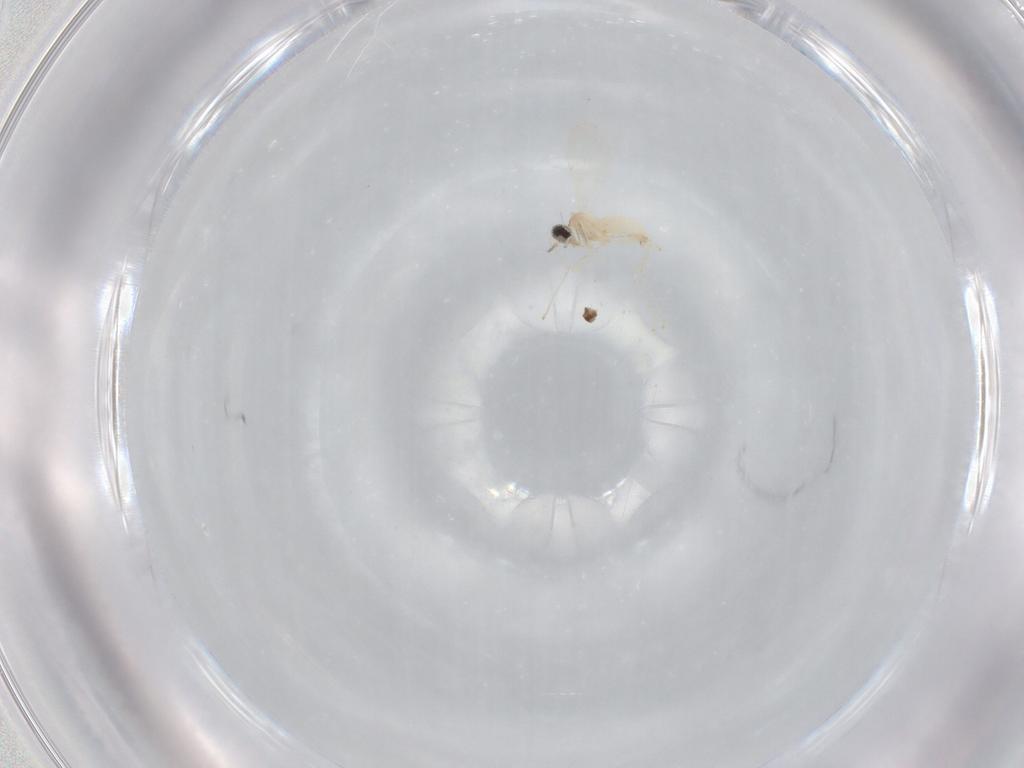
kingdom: Animalia
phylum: Arthropoda
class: Insecta
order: Diptera
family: Cecidomyiidae
